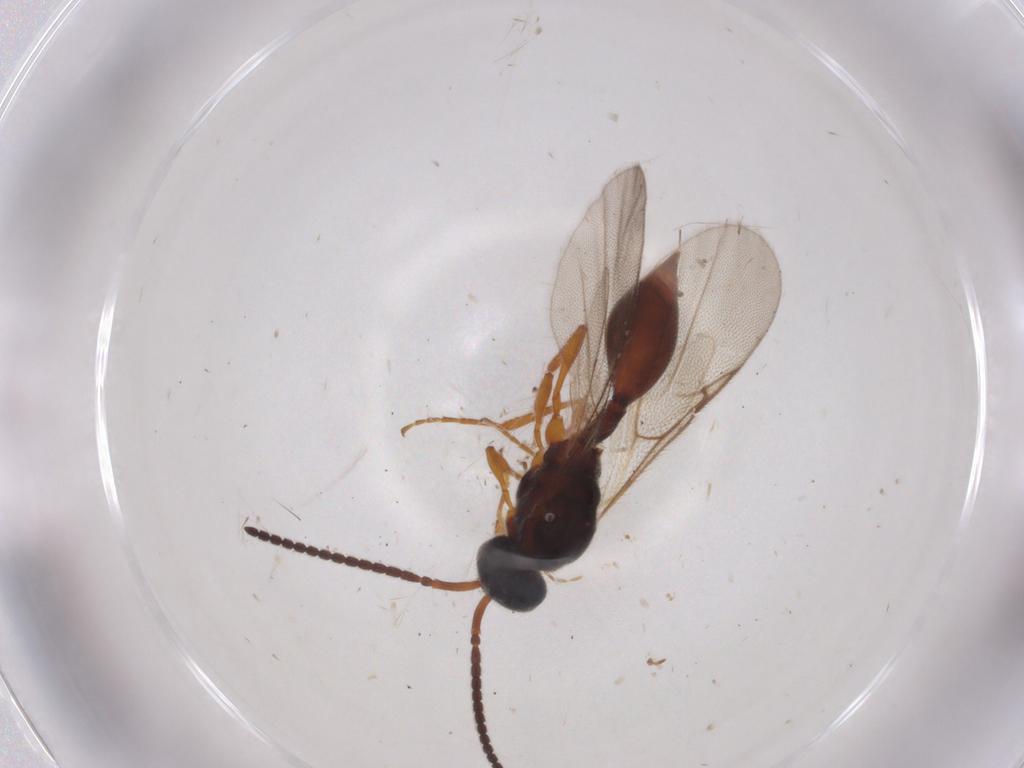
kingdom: Animalia
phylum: Arthropoda
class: Insecta
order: Hymenoptera
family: Diapriidae
